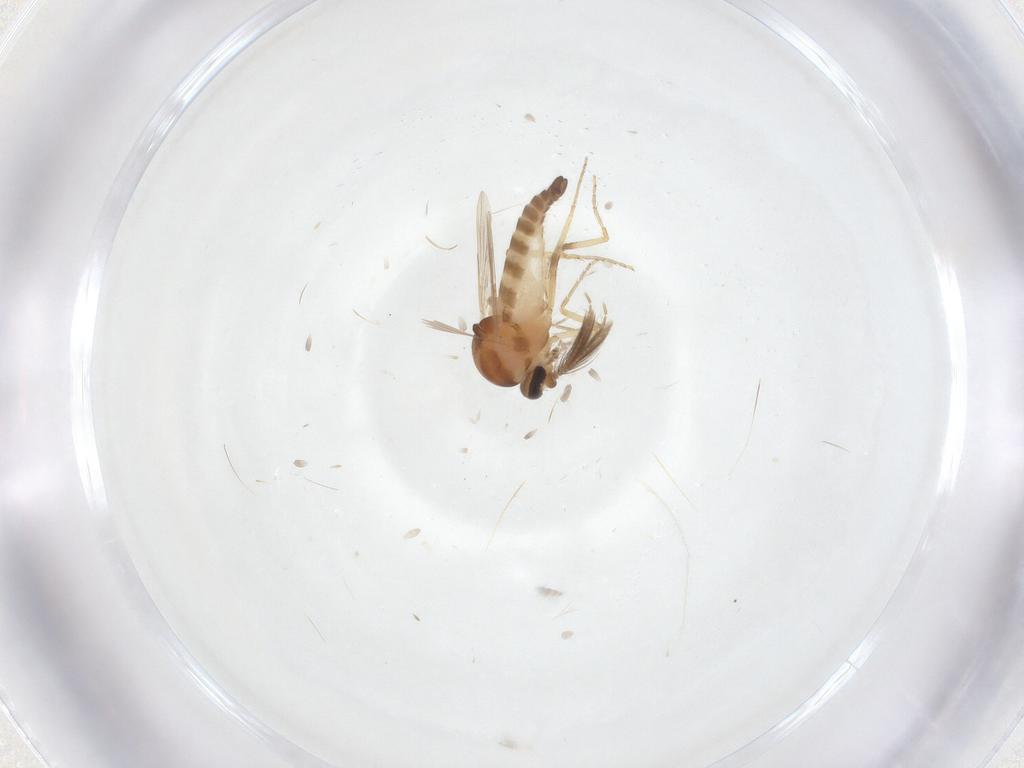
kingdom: Animalia
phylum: Arthropoda
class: Insecta
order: Diptera
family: Ceratopogonidae
